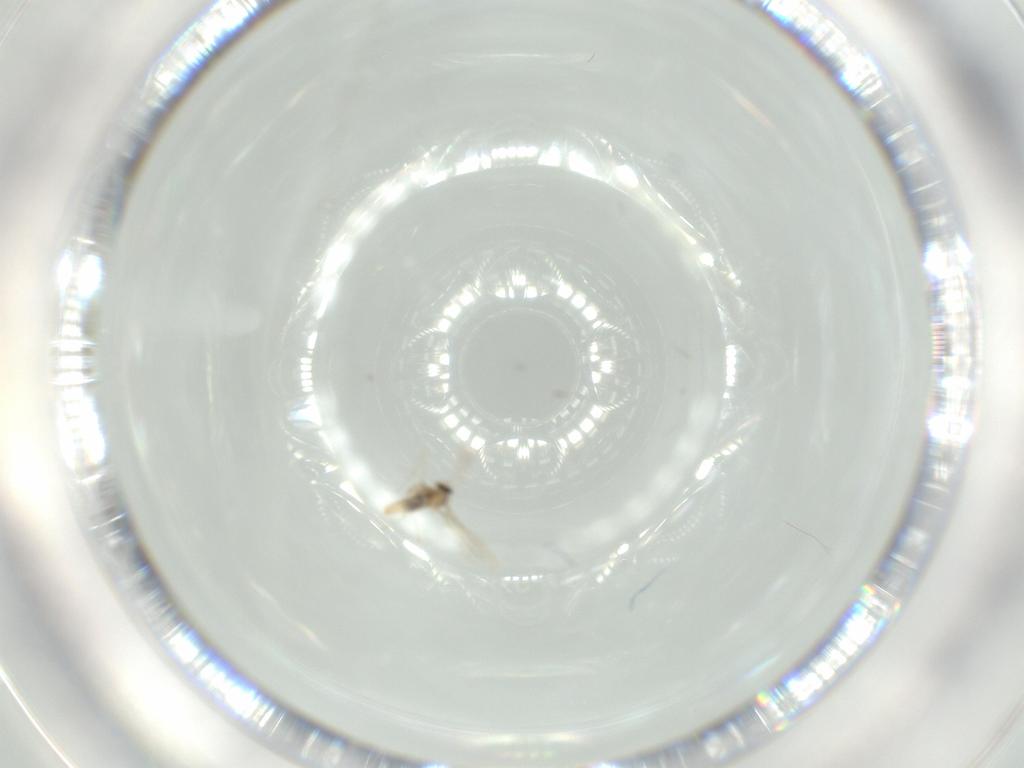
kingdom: Animalia
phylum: Arthropoda
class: Insecta
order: Diptera
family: Cecidomyiidae
